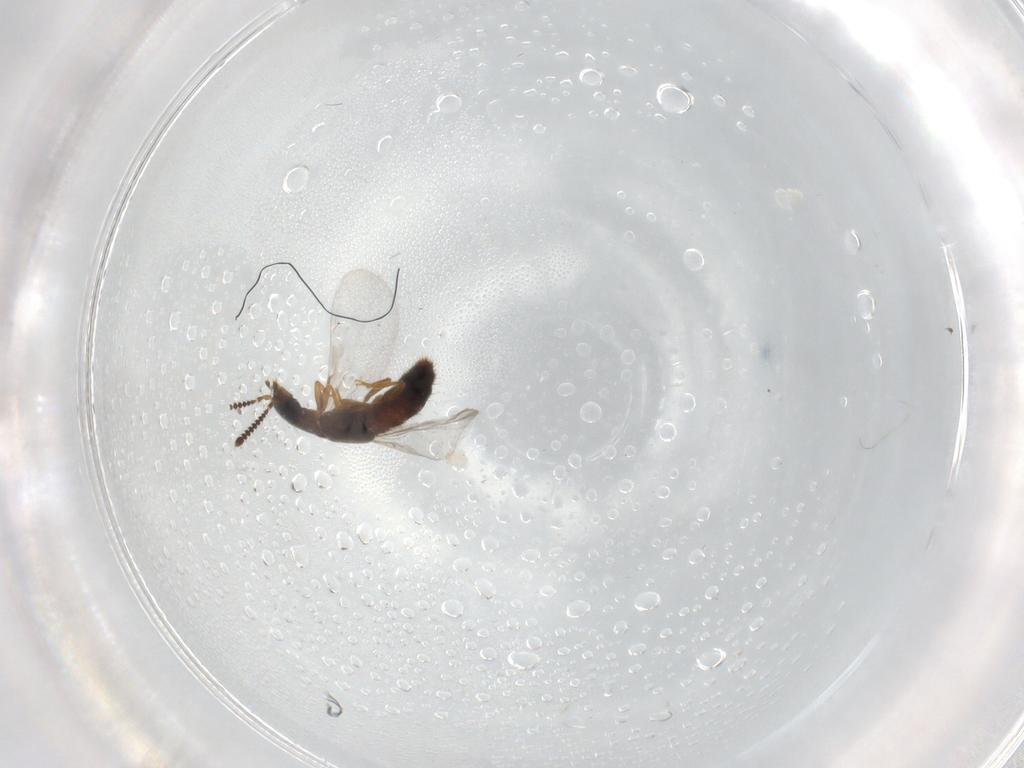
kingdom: Animalia
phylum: Arthropoda
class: Insecta
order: Coleoptera
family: Staphylinidae
